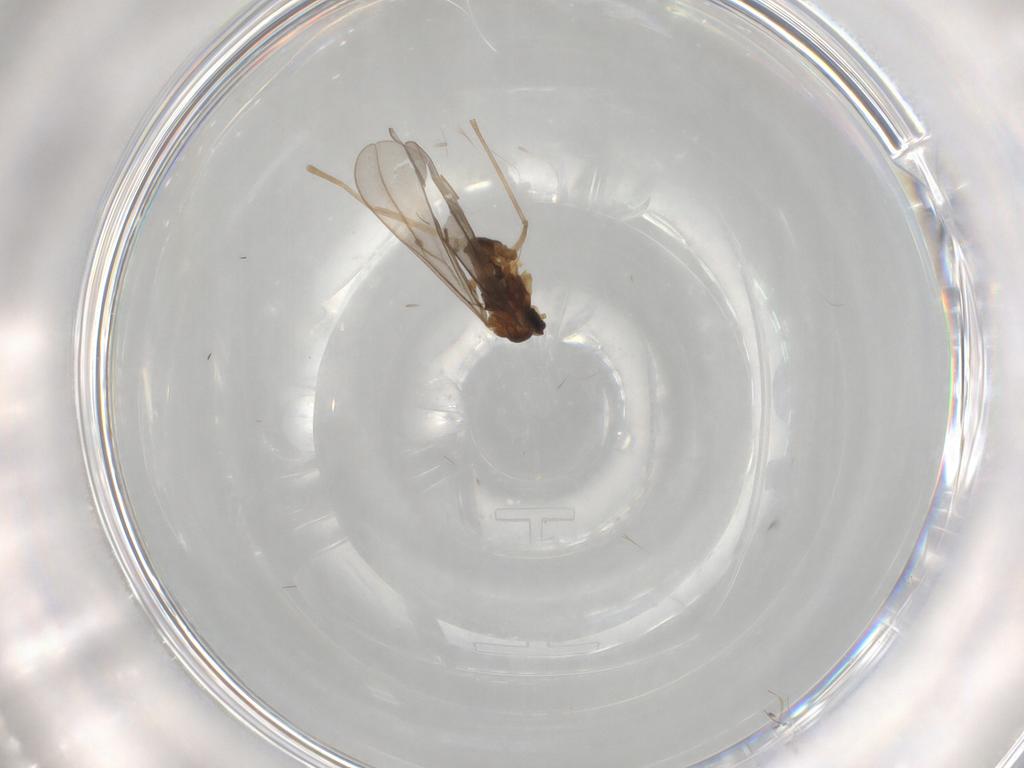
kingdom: Animalia
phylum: Arthropoda
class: Insecta
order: Diptera
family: Cecidomyiidae
